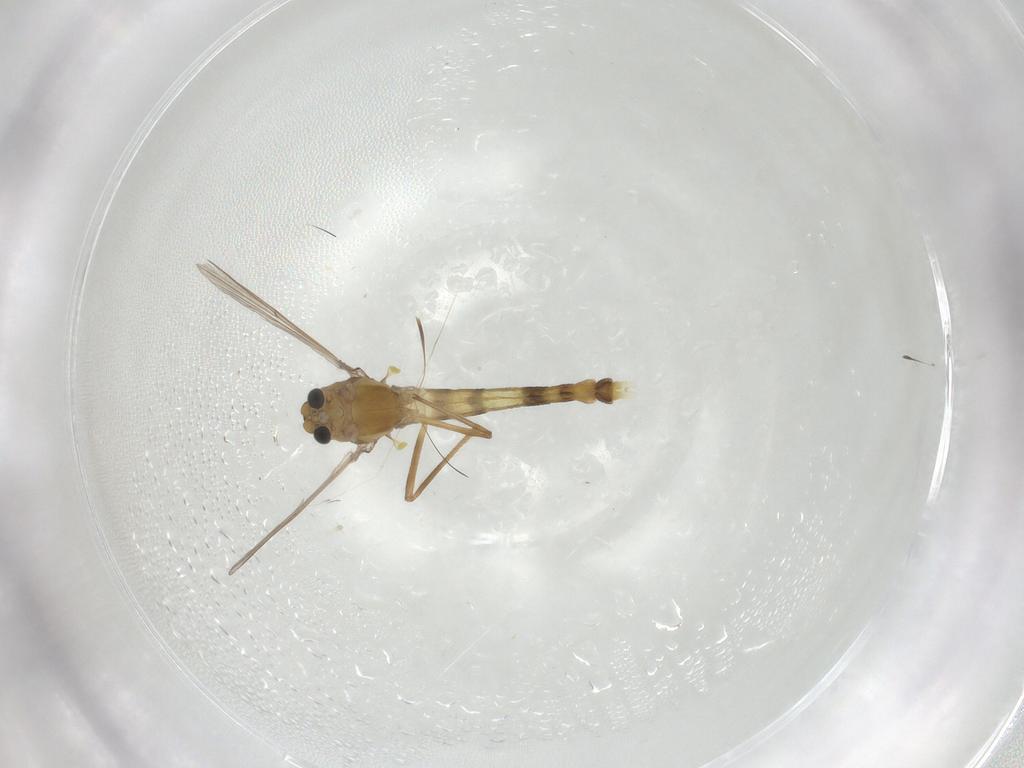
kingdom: Animalia
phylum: Arthropoda
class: Insecta
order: Diptera
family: Chironomidae
